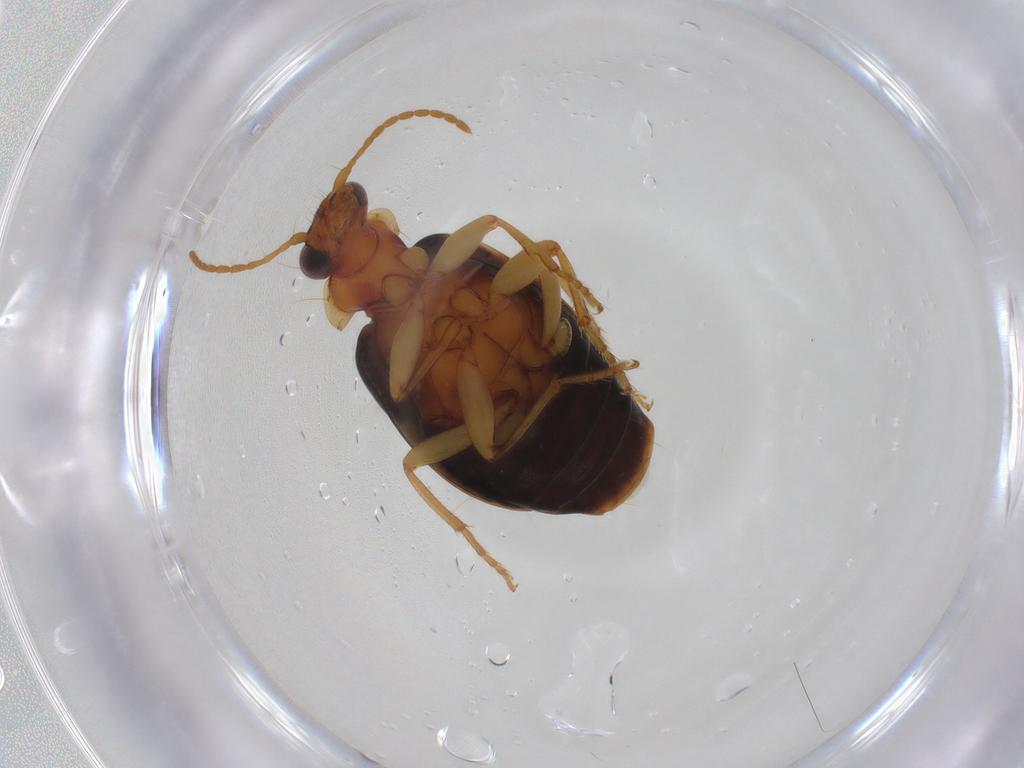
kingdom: Animalia
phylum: Arthropoda
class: Insecta
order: Coleoptera
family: Carabidae
